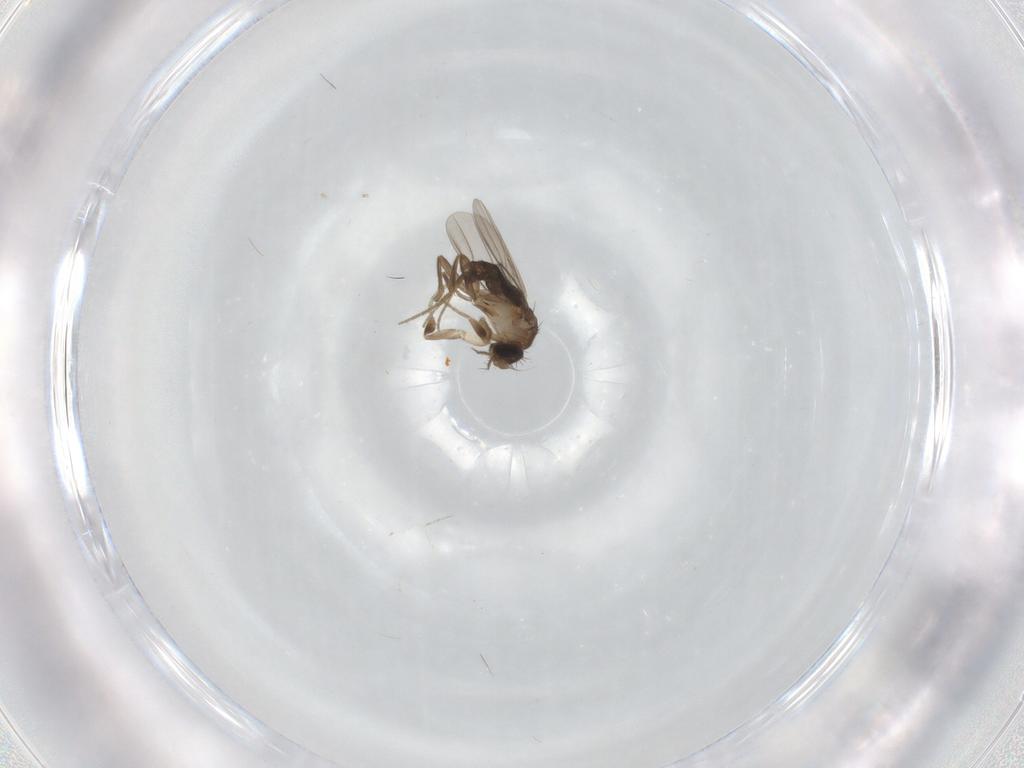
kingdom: Animalia
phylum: Arthropoda
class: Insecta
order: Diptera
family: Phoridae
